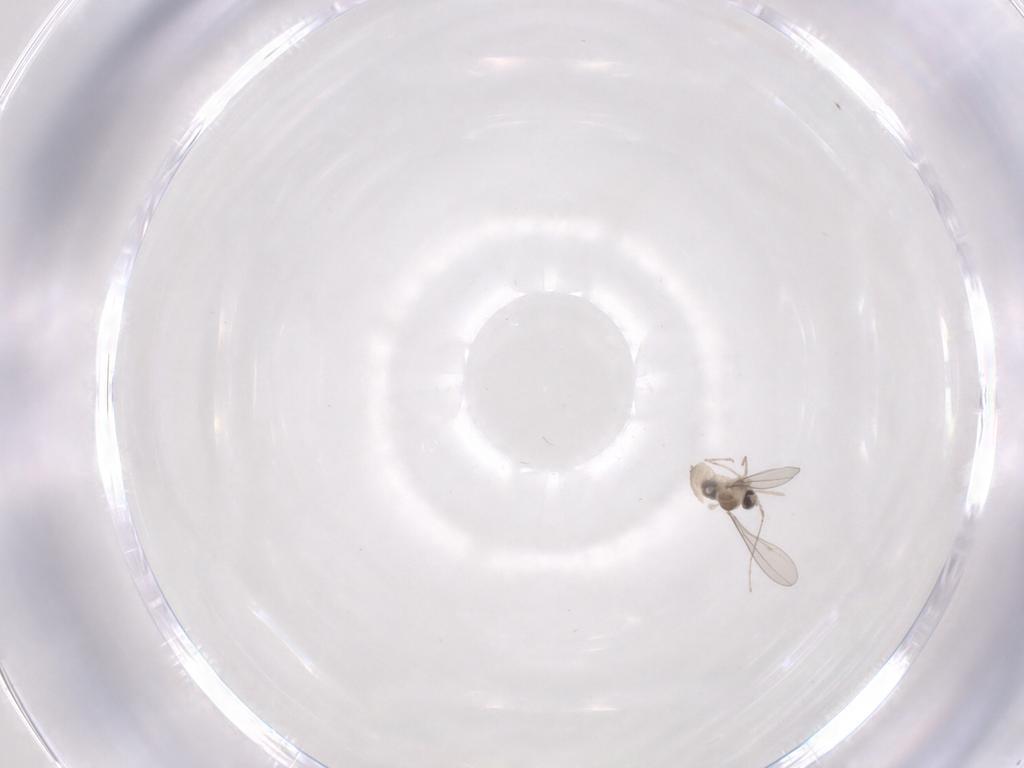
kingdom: Animalia
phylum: Arthropoda
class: Insecta
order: Diptera
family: Cecidomyiidae
